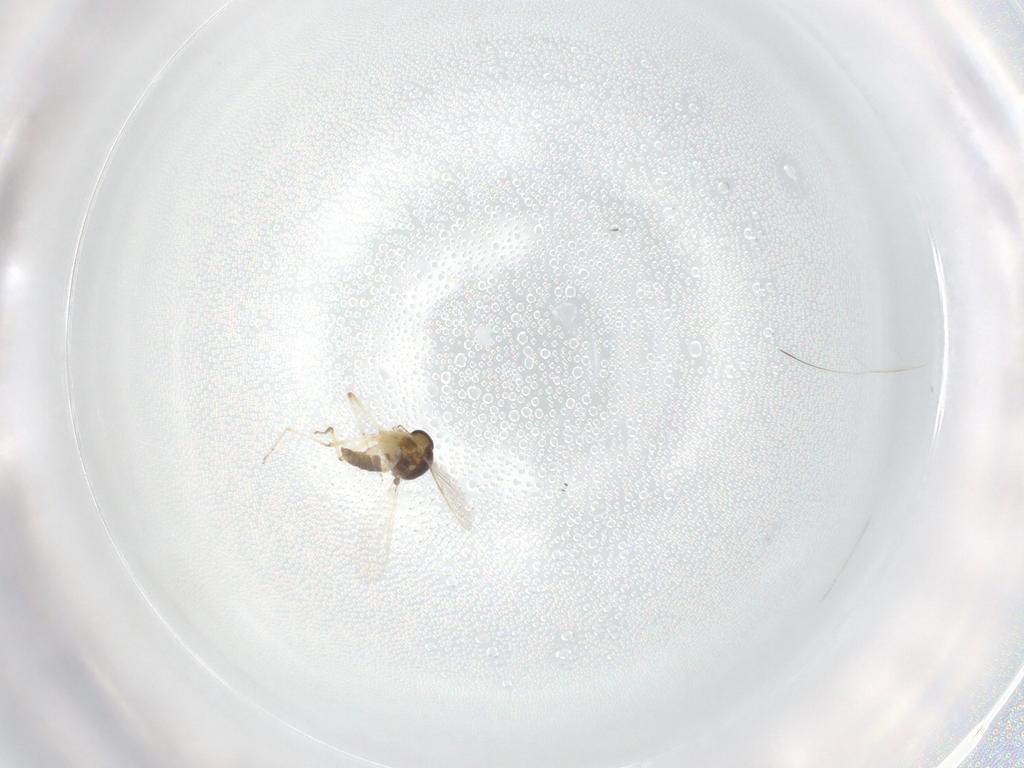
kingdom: Animalia
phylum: Arthropoda
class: Insecta
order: Diptera
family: Ceratopogonidae
